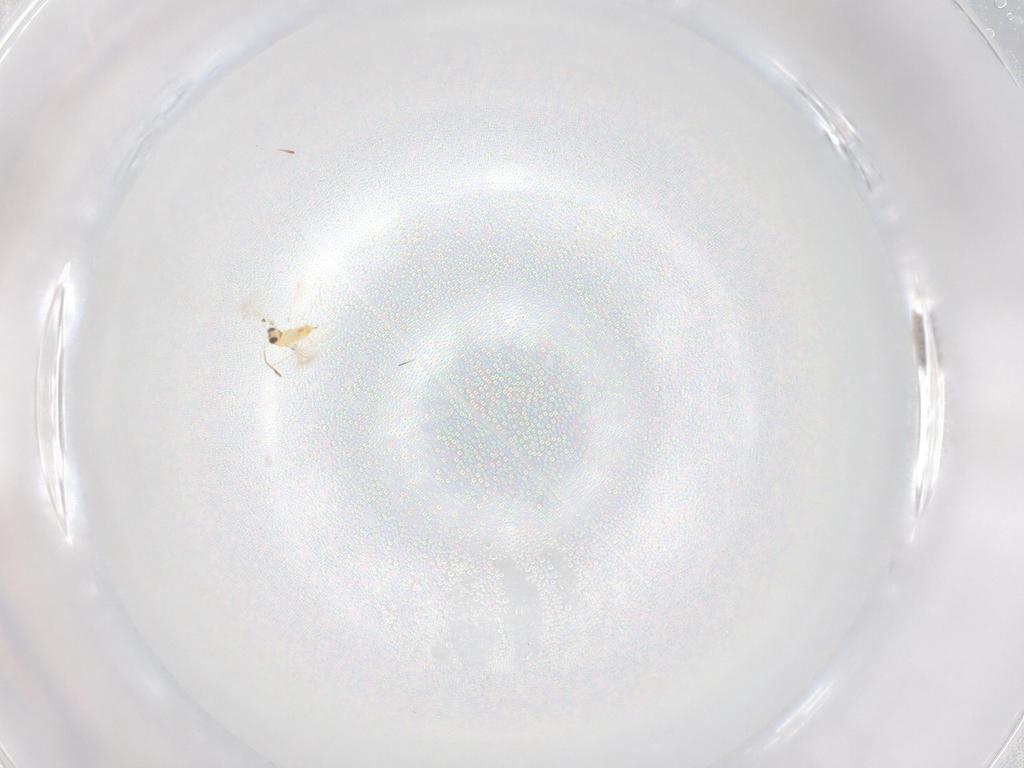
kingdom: Animalia
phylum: Arthropoda
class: Insecta
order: Hymenoptera
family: Mymaridae
